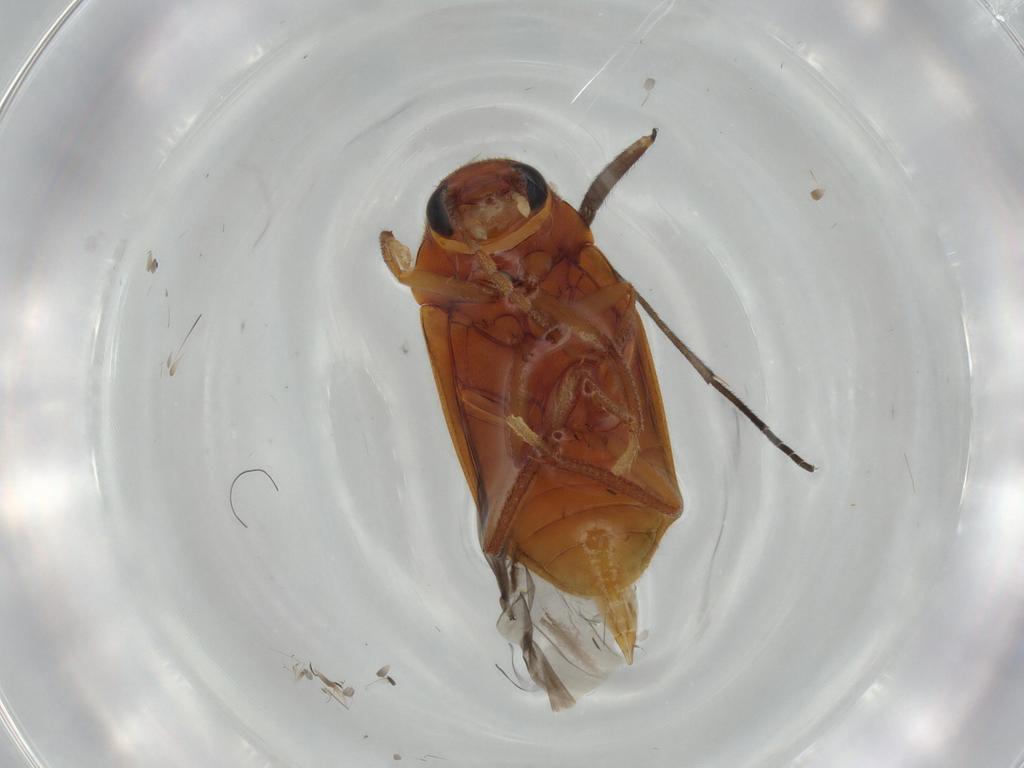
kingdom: Animalia
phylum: Arthropoda
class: Insecta
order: Coleoptera
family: Ptilodactylidae
